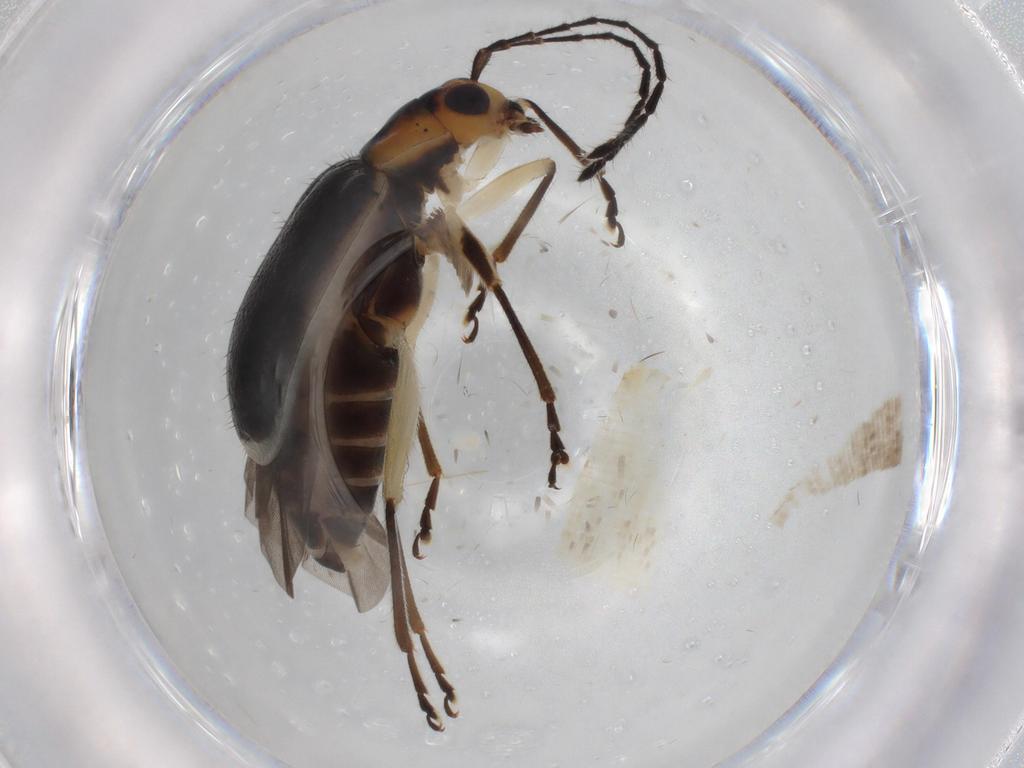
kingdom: Animalia
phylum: Arthropoda
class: Insecta
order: Coleoptera
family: Chrysomelidae
